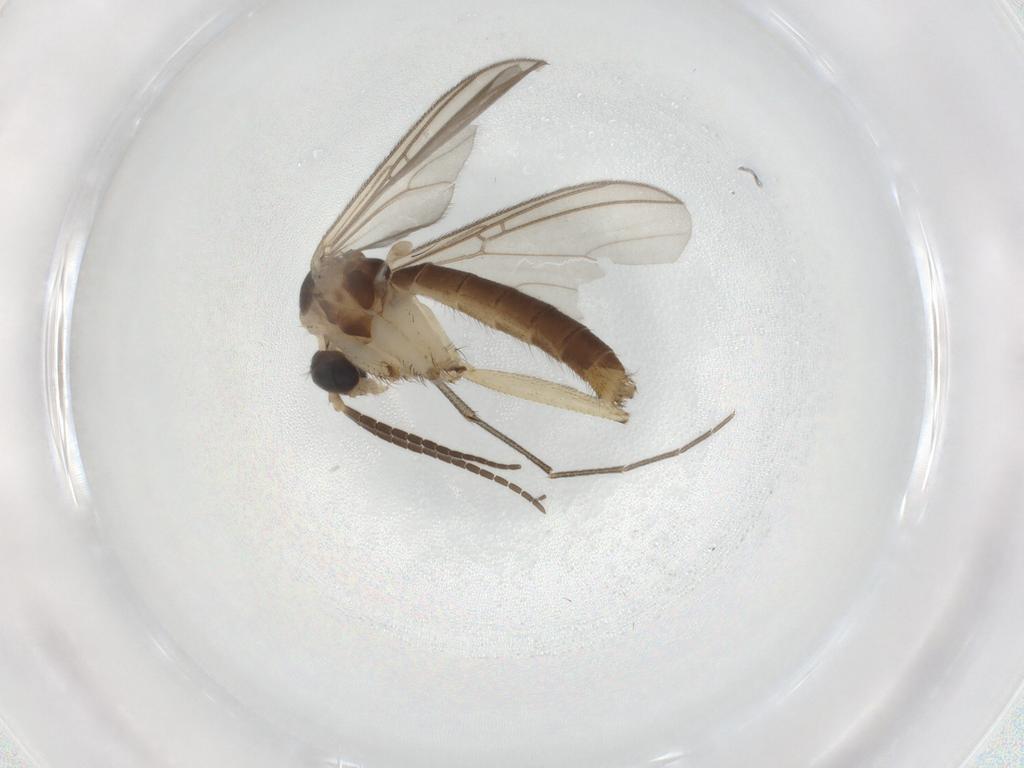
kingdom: Animalia
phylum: Arthropoda
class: Insecta
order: Diptera
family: Mycetophilidae
